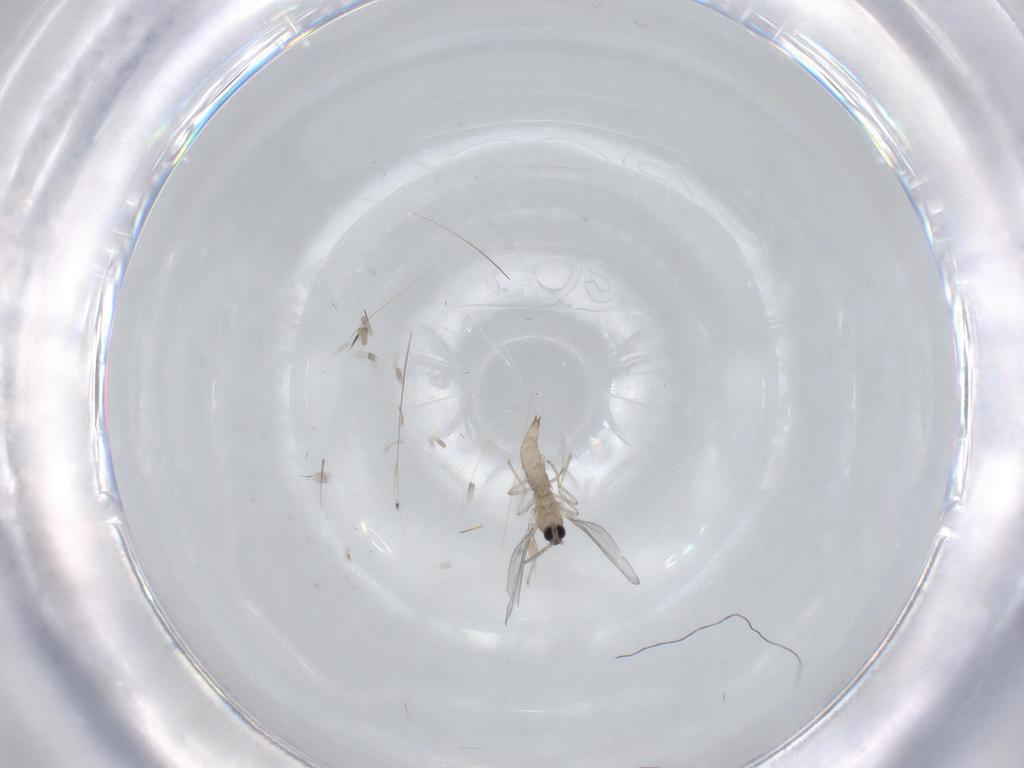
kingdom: Animalia
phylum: Arthropoda
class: Insecta
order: Diptera
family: Cecidomyiidae
